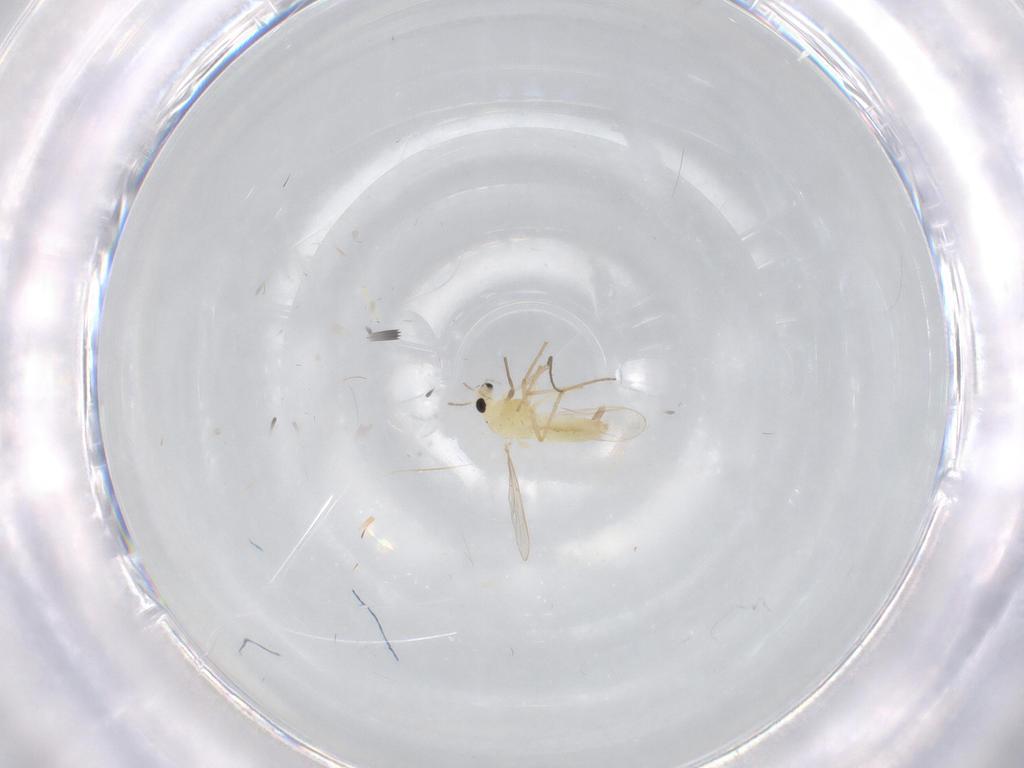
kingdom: Animalia
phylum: Arthropoda
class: Insecta
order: Diptera
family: Chironomidae
